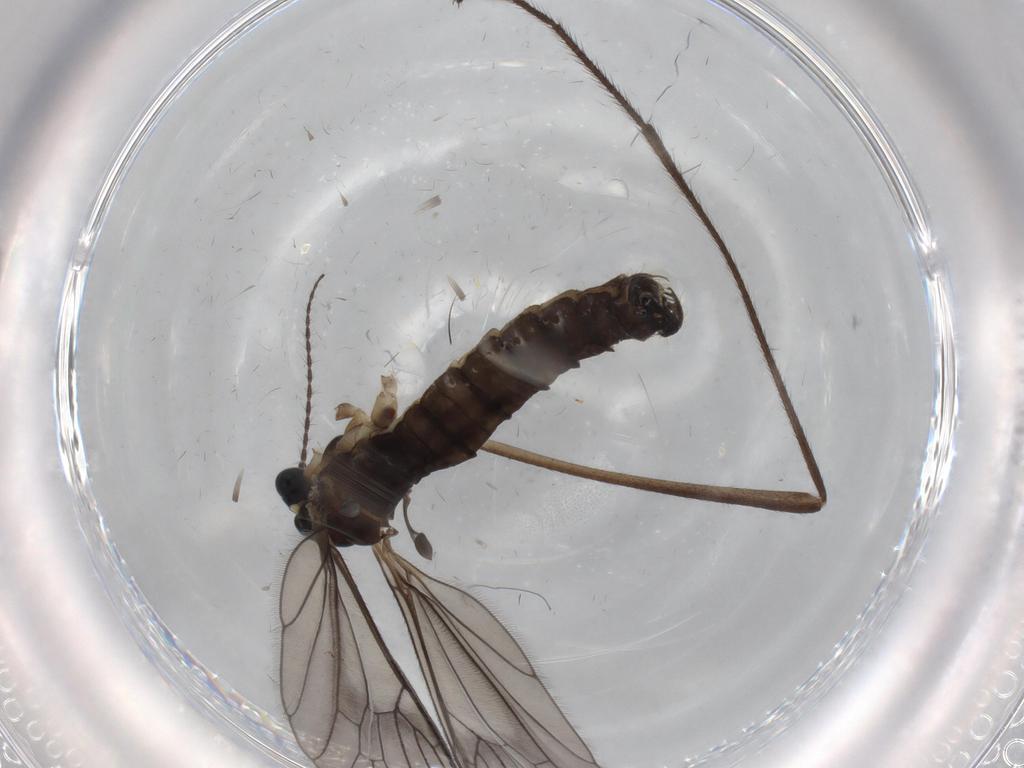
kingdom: Animalia
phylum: Arthropoda
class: Insecta
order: Diptera
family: Limoniidae
